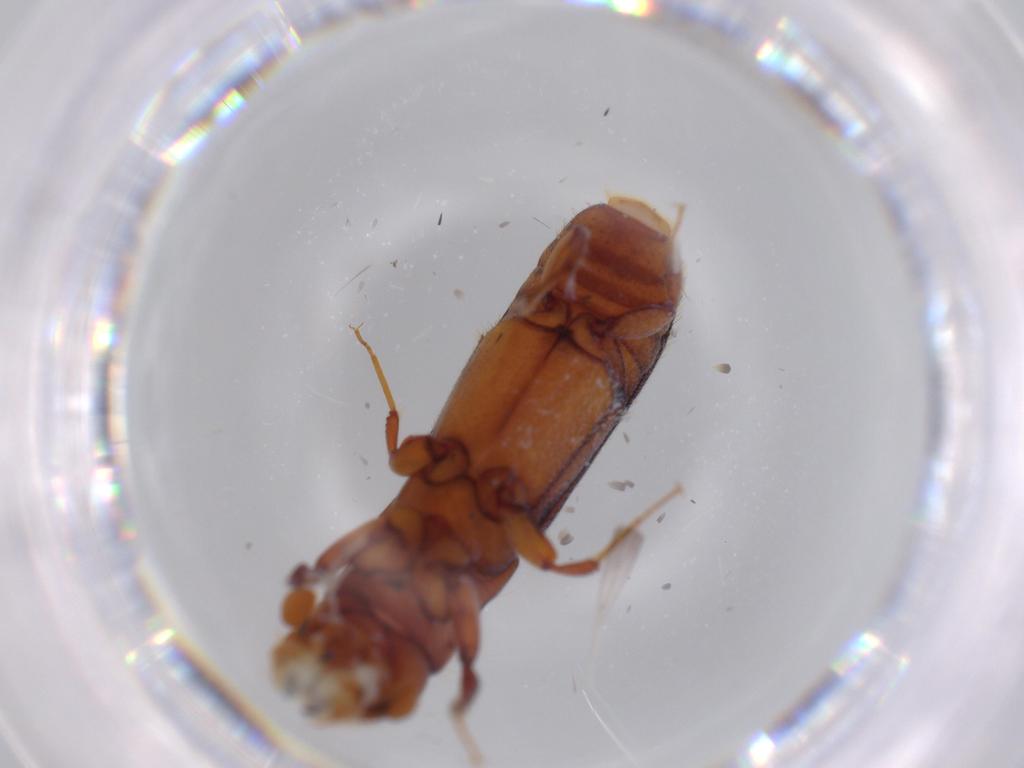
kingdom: Animalia
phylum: Arthropoda
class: Insecta
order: Coleoptera
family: Curculionidae
